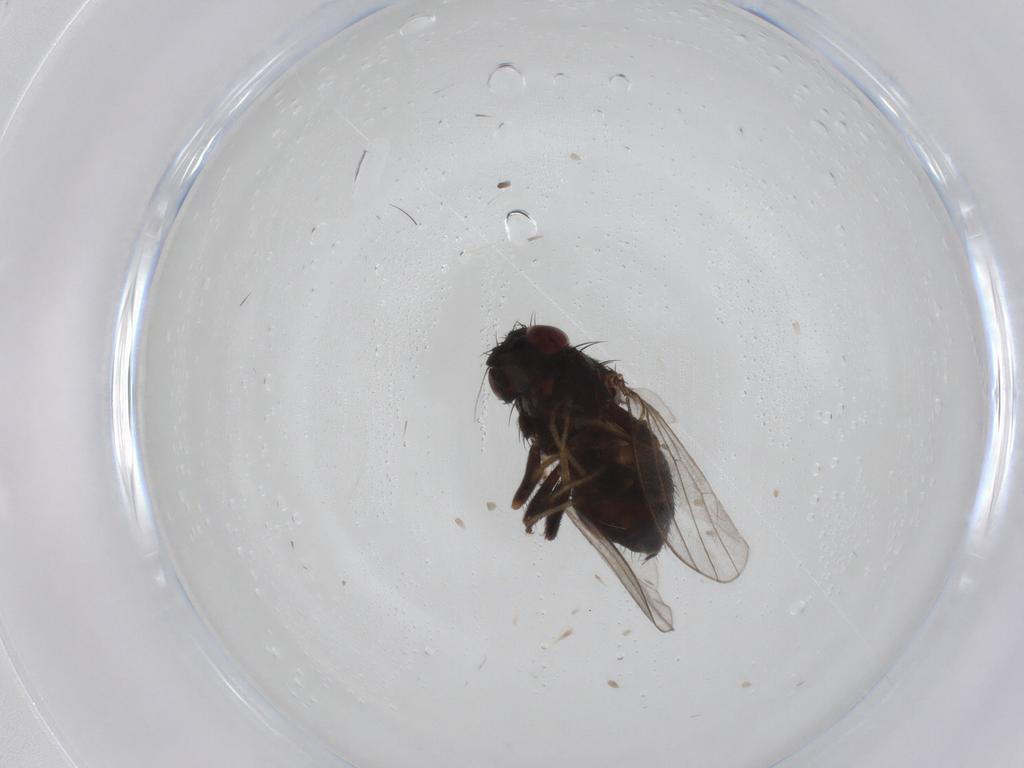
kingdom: Animalia
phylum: Arthropoda
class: Insecta
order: Diptera
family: Milichiidae
